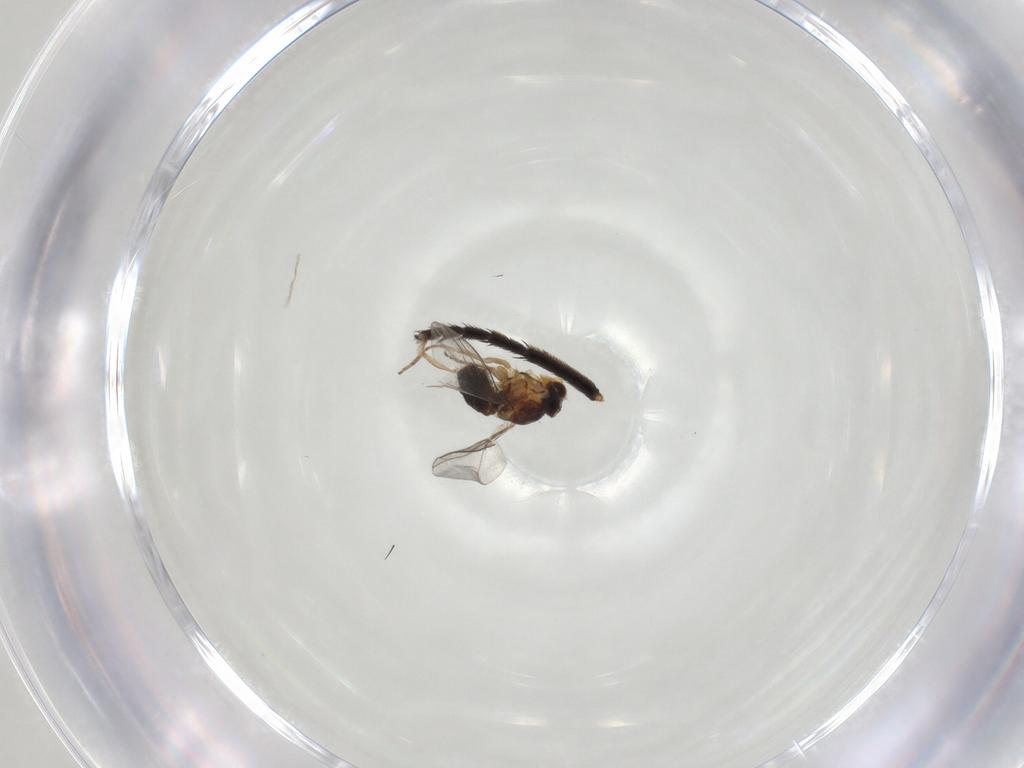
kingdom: Animalia
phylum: Arthropoda
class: Insecta
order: Diptera
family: Agromyzidae
